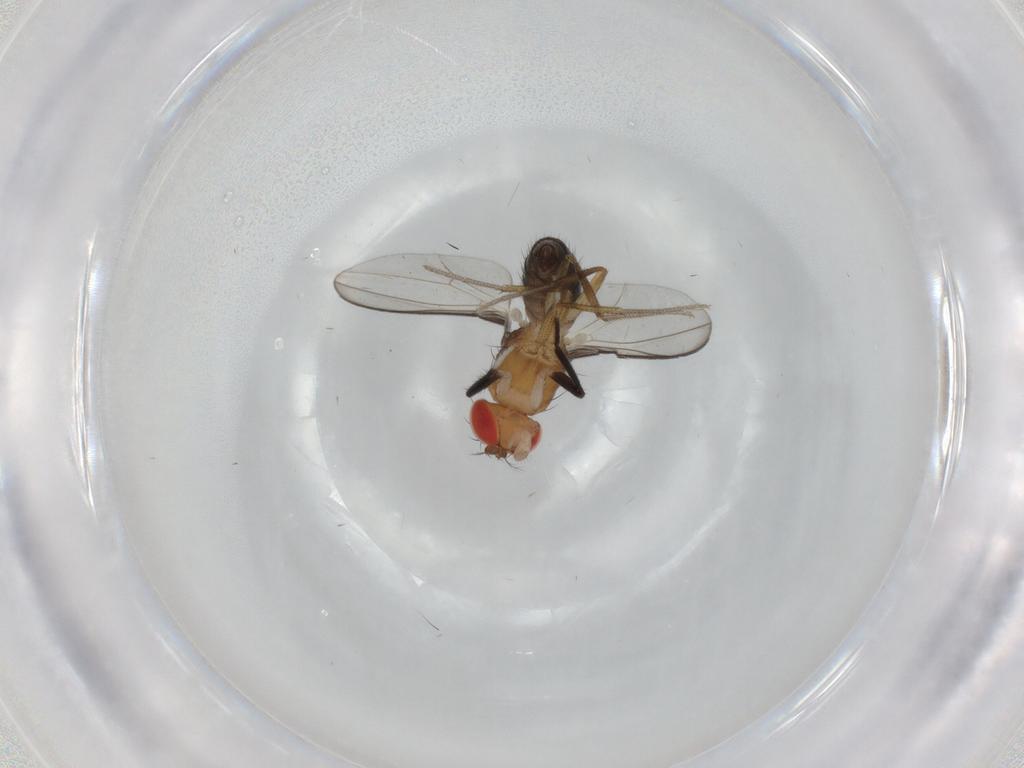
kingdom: Animalia
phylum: Arthropoda
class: Insecta
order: Diptera
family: Drosophilidae
